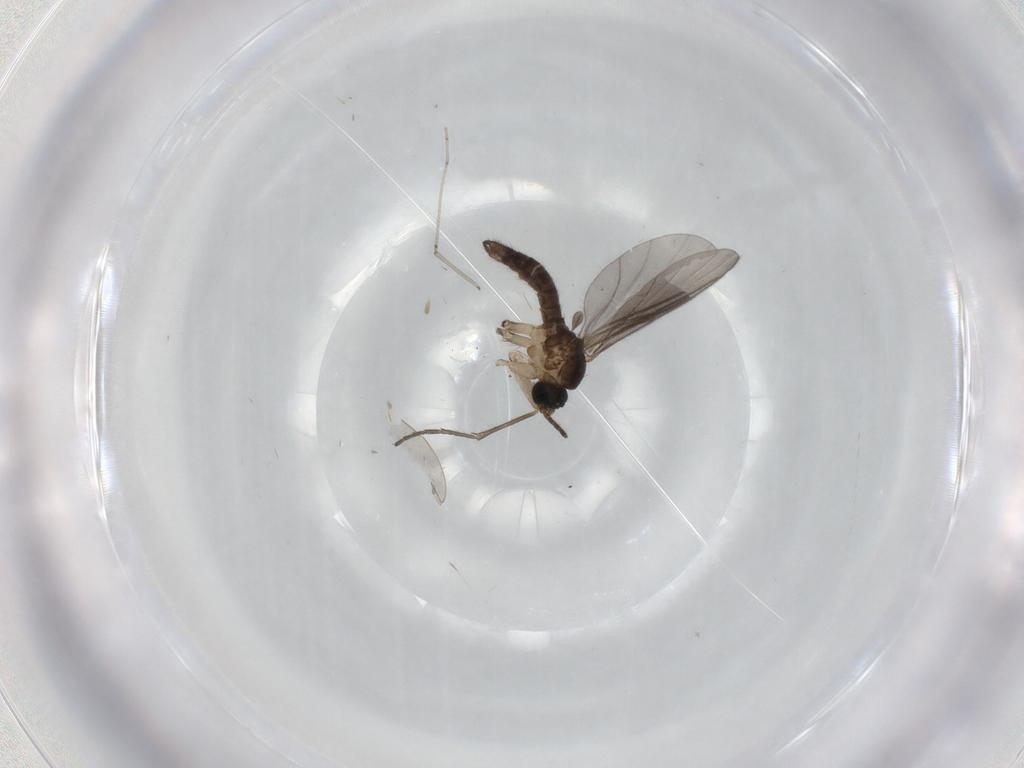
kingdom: Animalia
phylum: Arthropoda
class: Insecta
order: Diptera
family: Sciaridae
